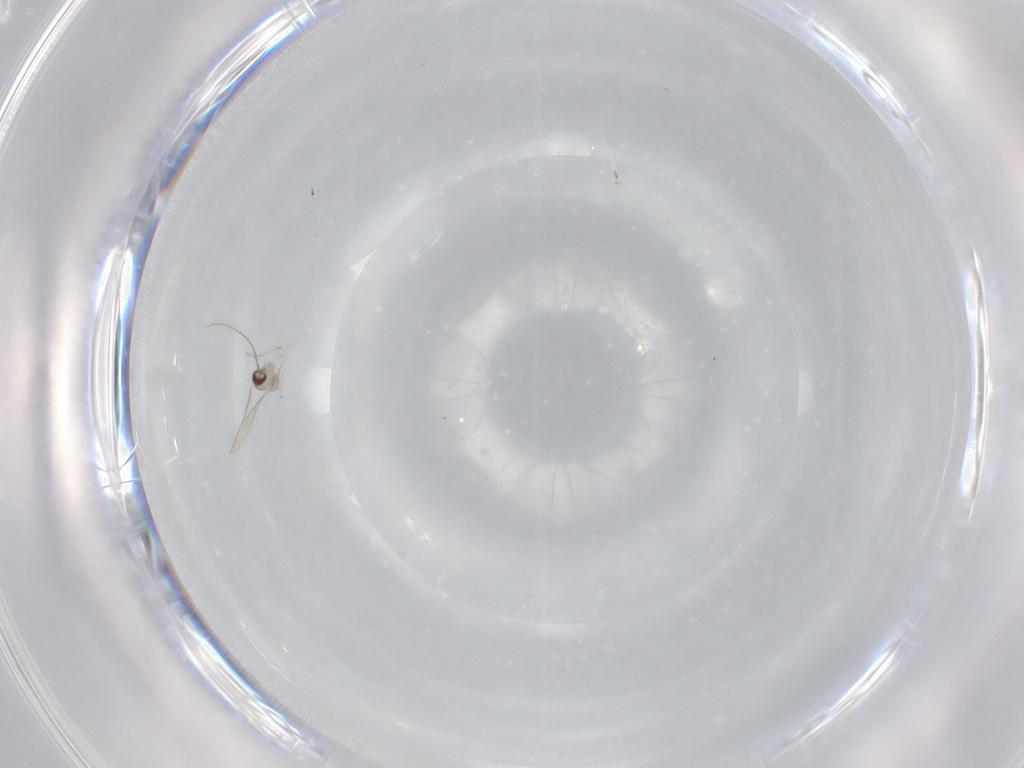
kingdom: Animalia
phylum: Arthropoda
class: Insecta
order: Diptera
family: Cecidomyiidae
